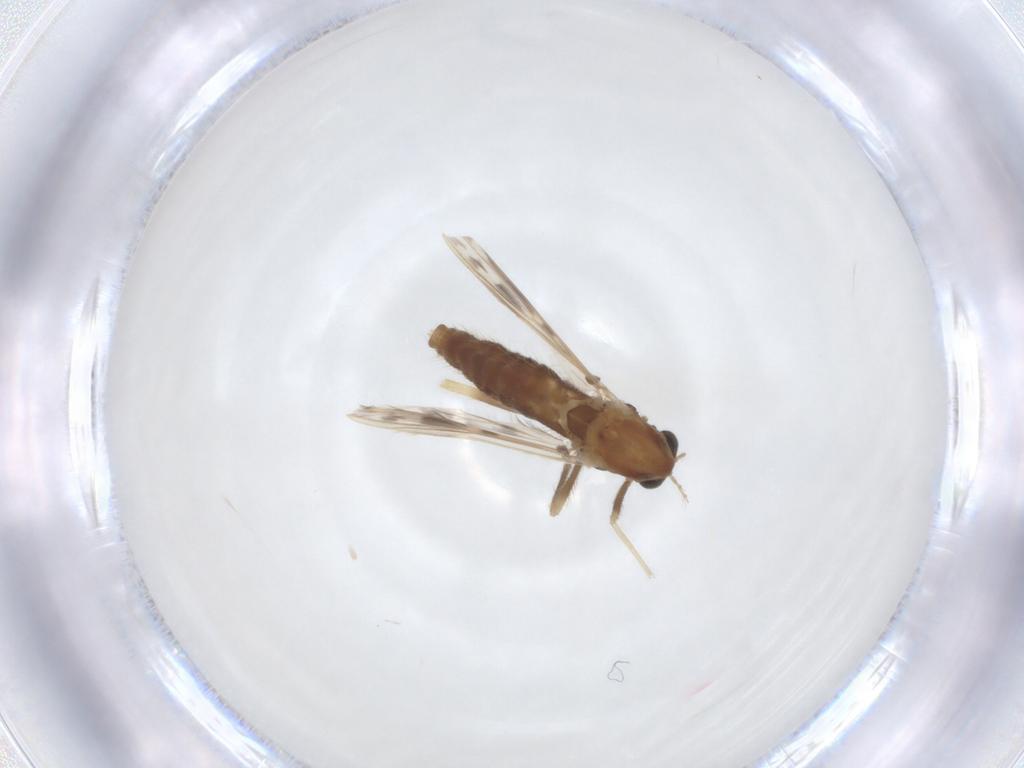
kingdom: Animalia
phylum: Arthropoda
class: Insecta
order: Diptera
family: Chironomidae
